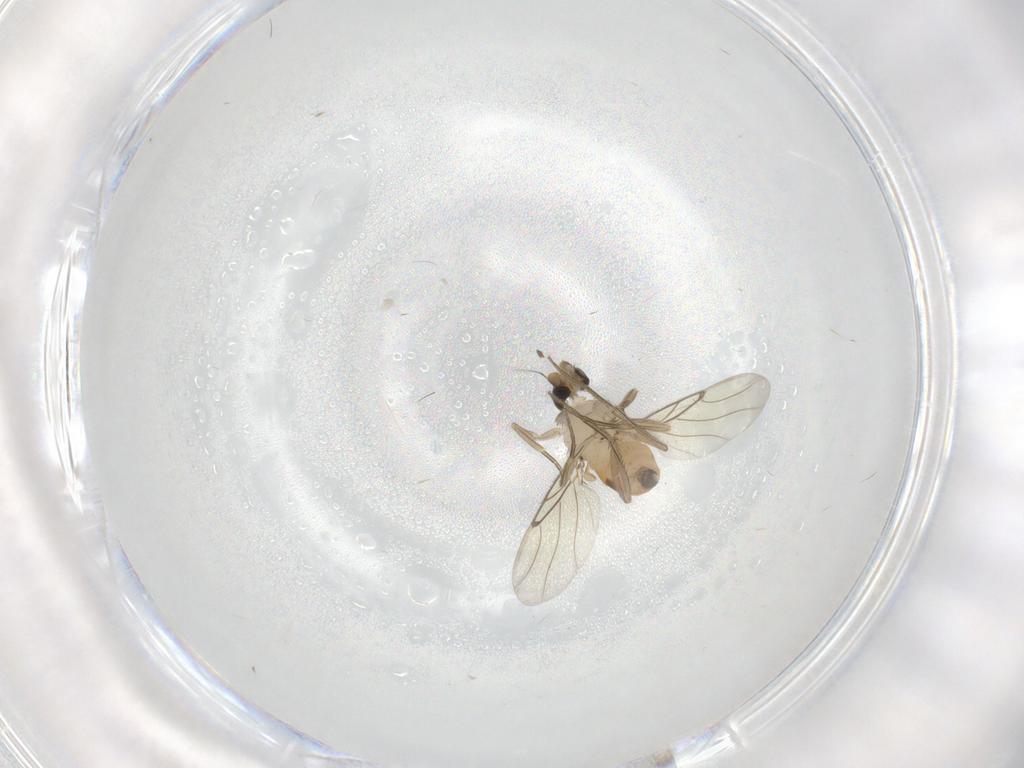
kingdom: Animalia
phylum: Arthropoda
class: Insecta
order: Diptera
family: Phoridae
